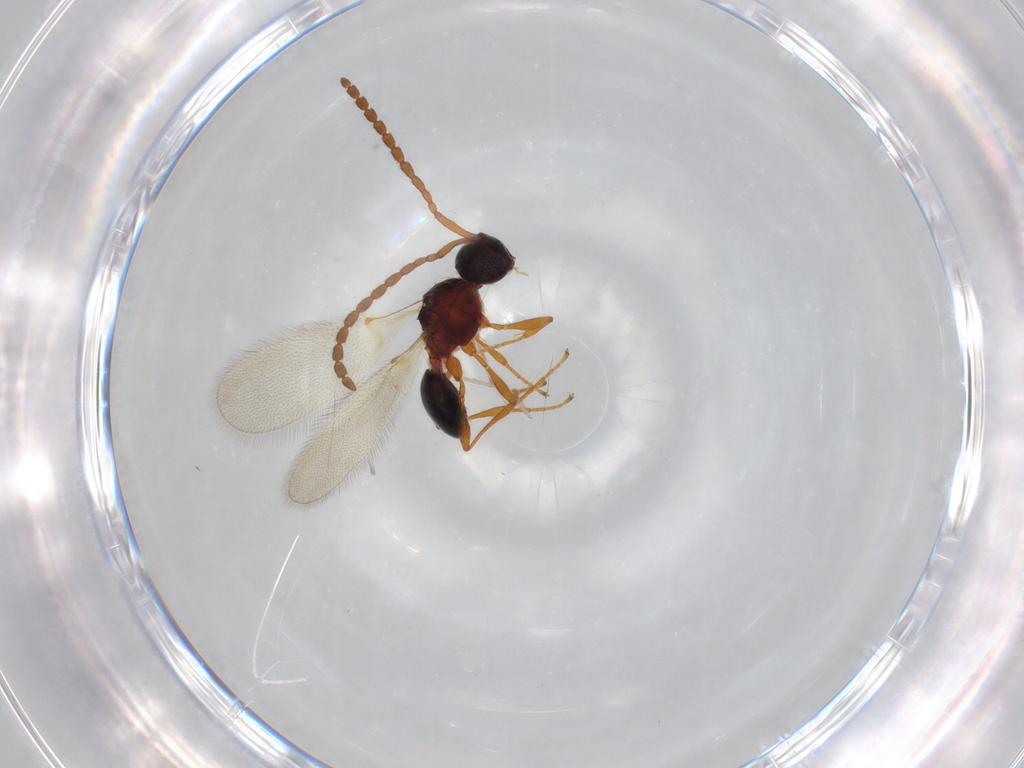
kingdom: Animalia
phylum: Arthropoda
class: Insecta
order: Hymenoptera
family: Diapriidae
